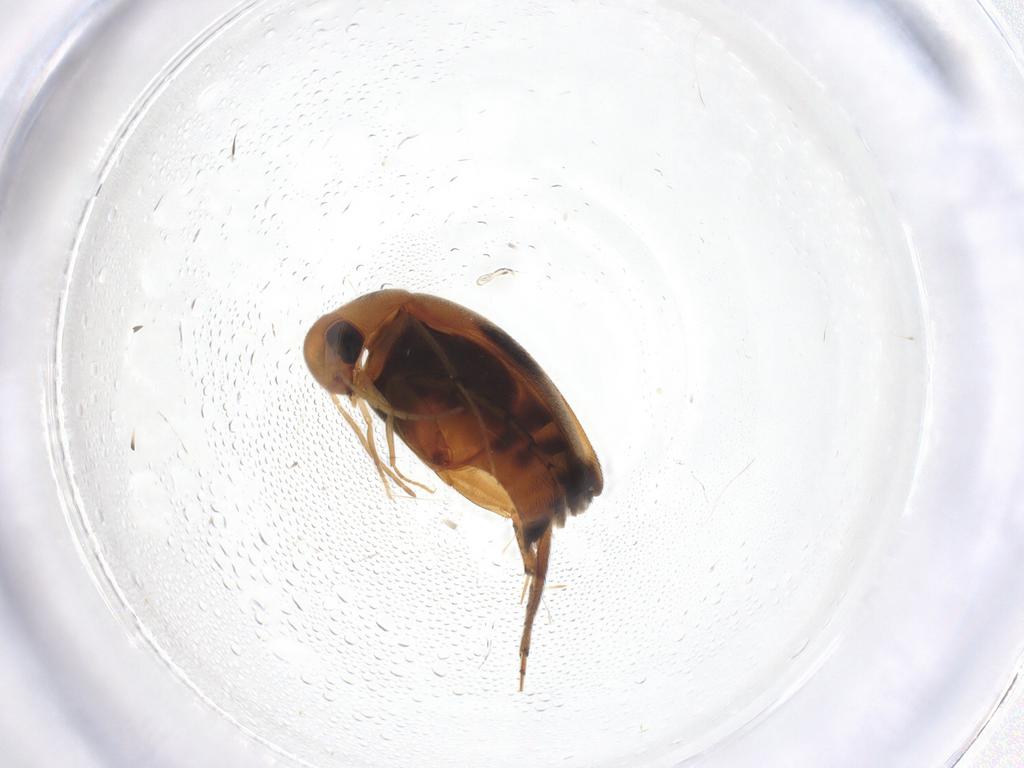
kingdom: Animalia
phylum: Arthropoda
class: Insecta
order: Coleoptera
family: Mordellidae
